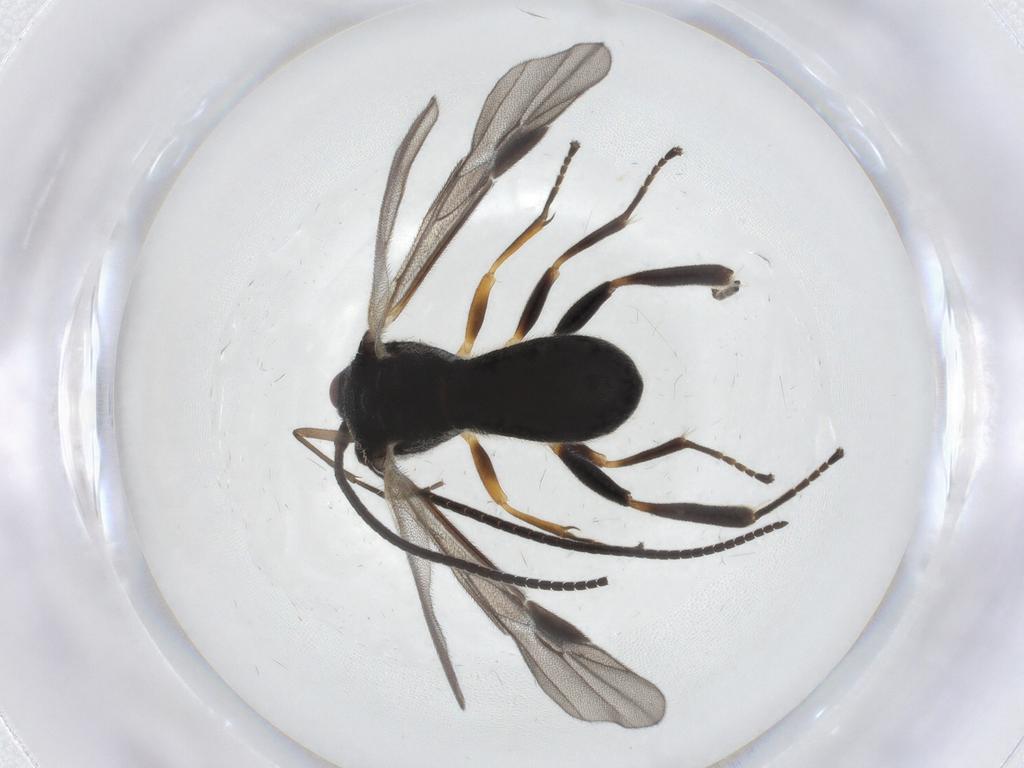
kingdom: Animalia
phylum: Arthropoda
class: Insecta
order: Hymenoptera
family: Braconidae
